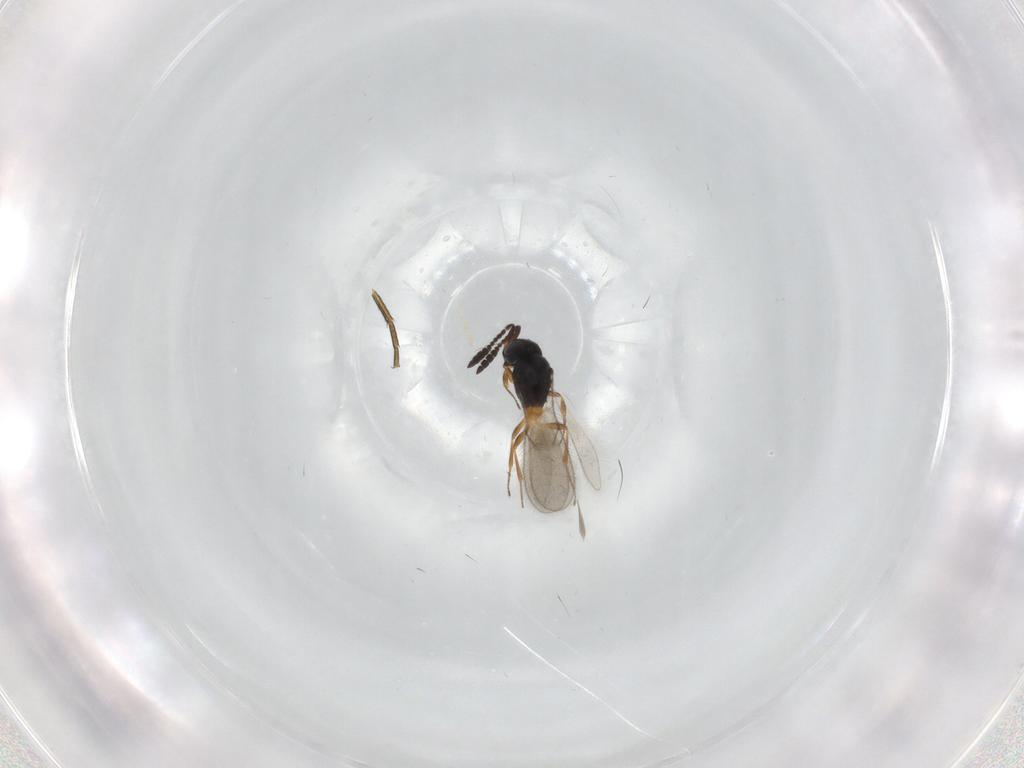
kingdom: Animalia
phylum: Arthropoda
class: Insecta
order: Hymenoptera
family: Scelionidae
